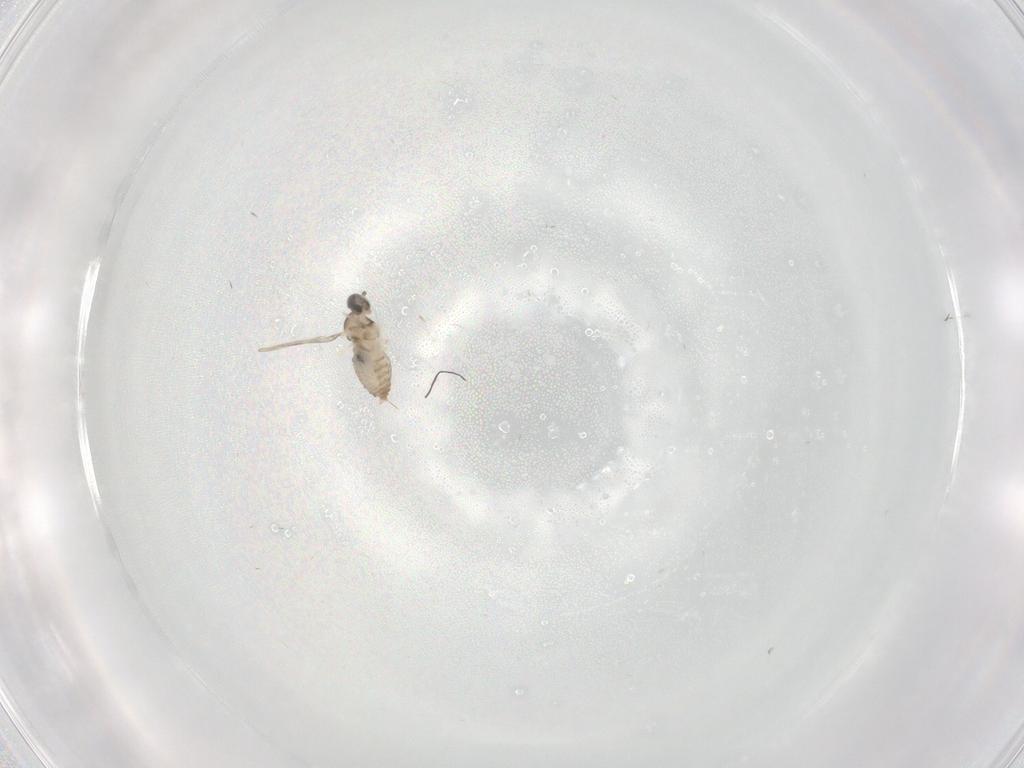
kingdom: Animalia
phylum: Arthropoda
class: Insecta
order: Diptera
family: Cecidomyiidae
